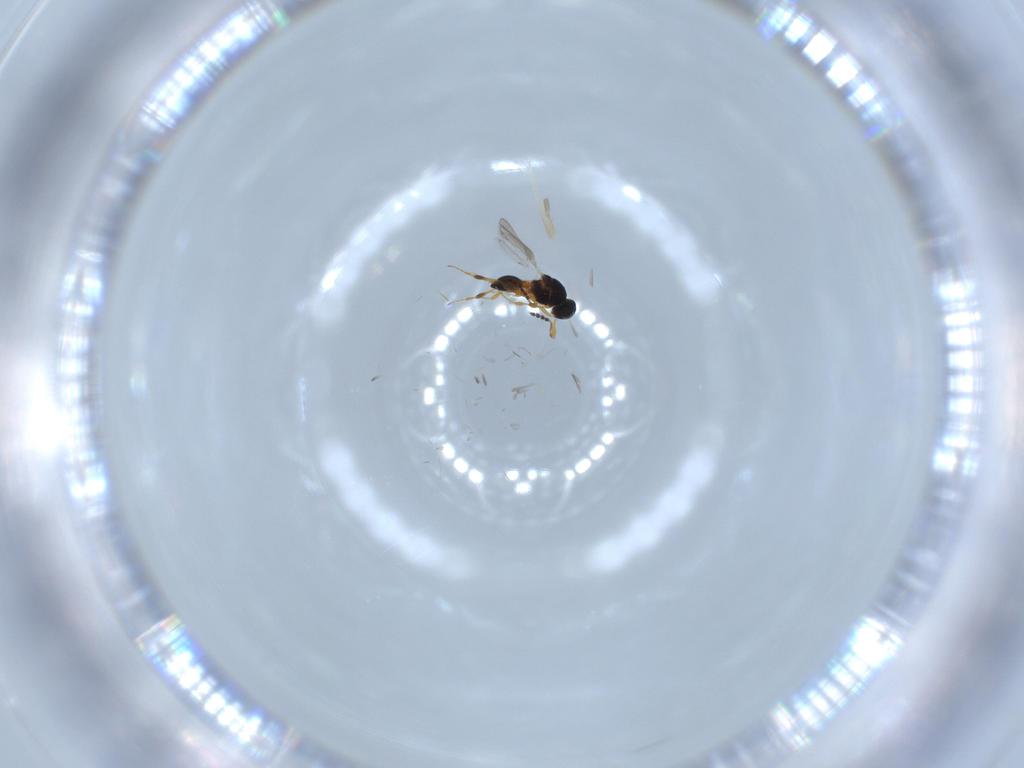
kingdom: Animalia
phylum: Arthropoda
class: Insecta
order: Hymenoptera
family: Platygastridae
